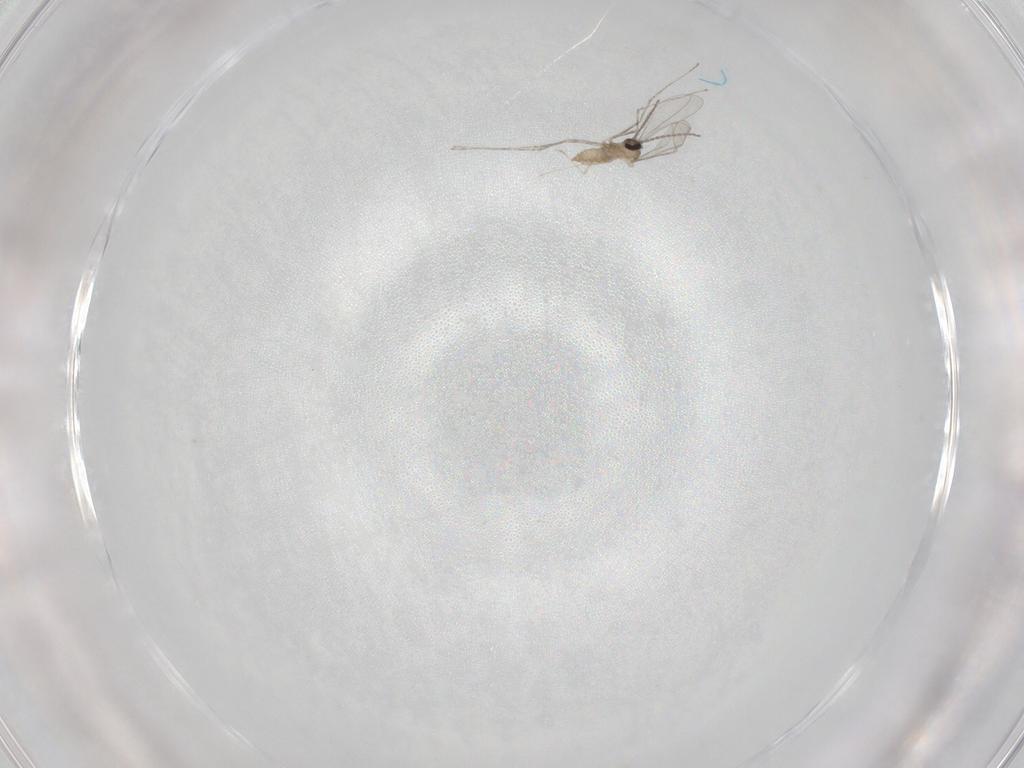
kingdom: Animalia
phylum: Arthropoda
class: Insecta
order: Diptera
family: Cecidomyiidae
